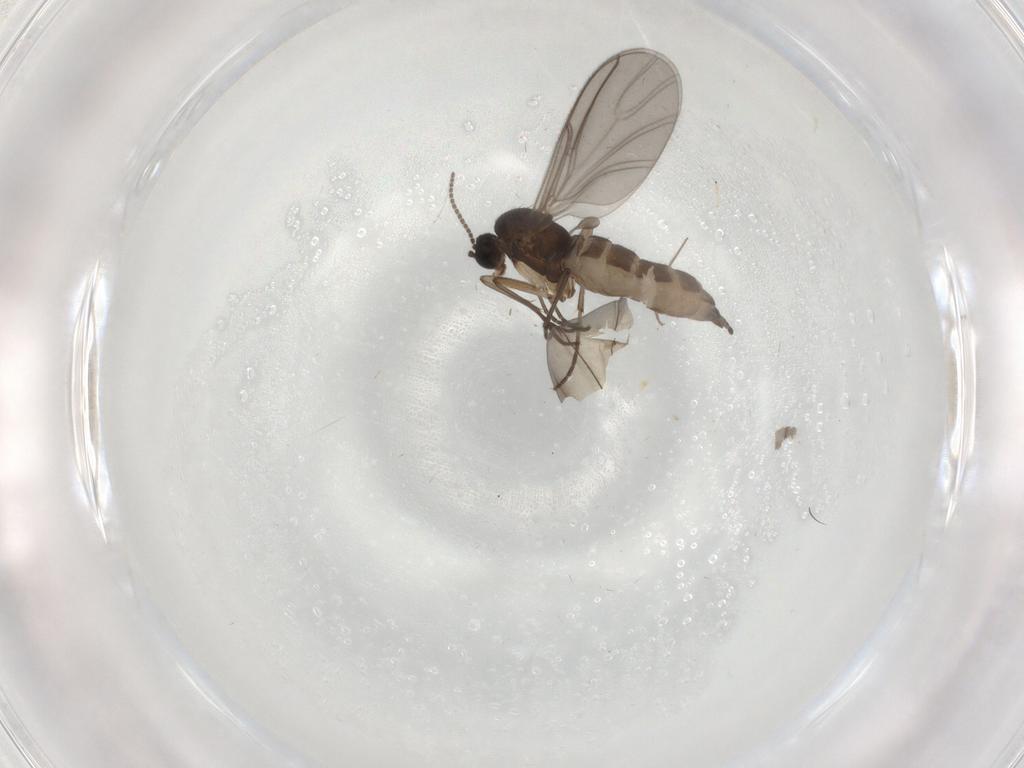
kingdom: Animalia
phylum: Arthropoda
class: Insecta
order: Diptera
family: Sciaridae
